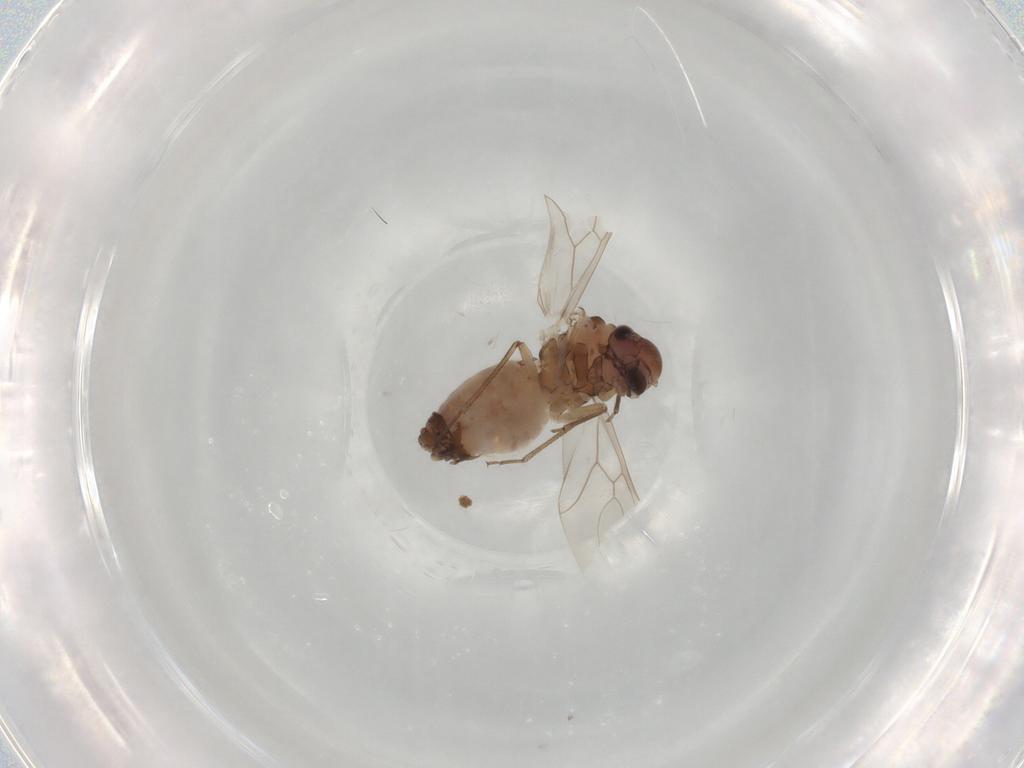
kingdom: Animalia
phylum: Arthropoda
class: Insecta
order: Psocodea
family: Peripsocidae
